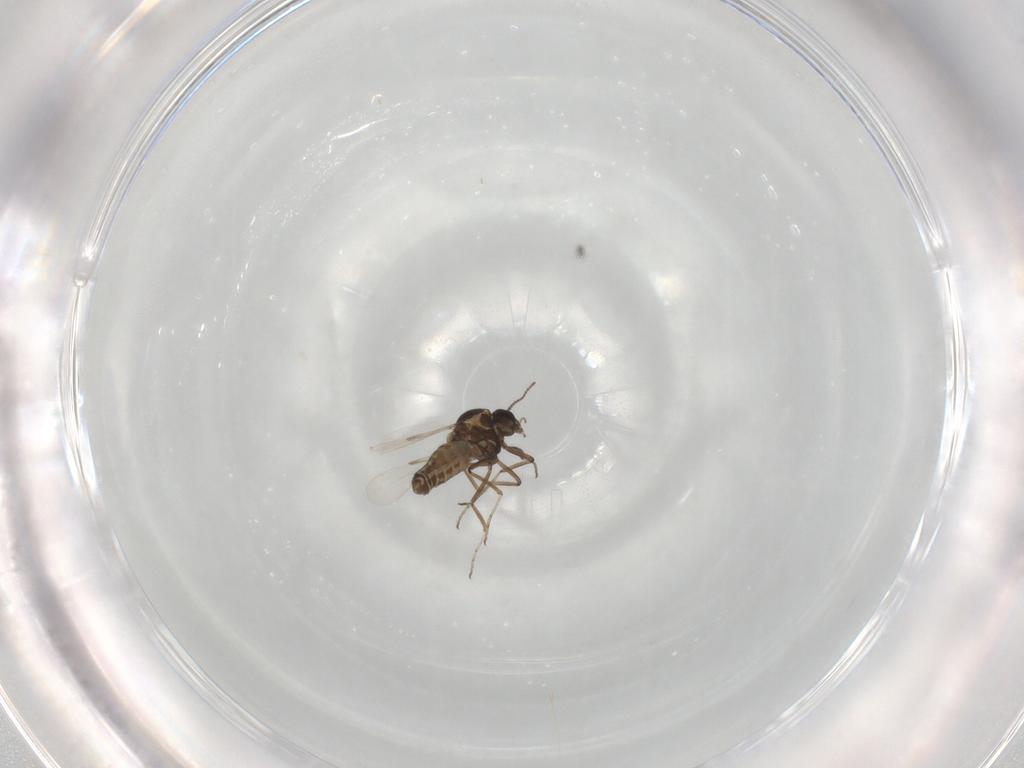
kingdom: Animalia
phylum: Arthropoda
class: Insecta
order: Diptera
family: Ceratopogonidae
